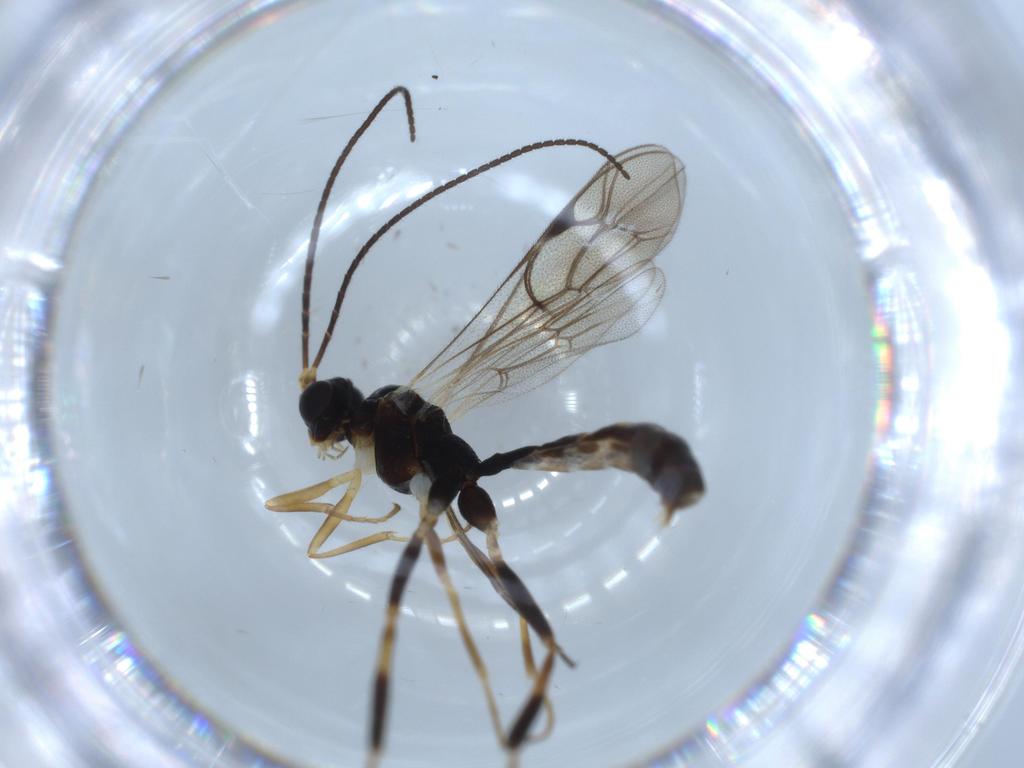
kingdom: Animalia
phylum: Arthropoda
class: Insecta
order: Hymenoptera
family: Ichneumonidae
